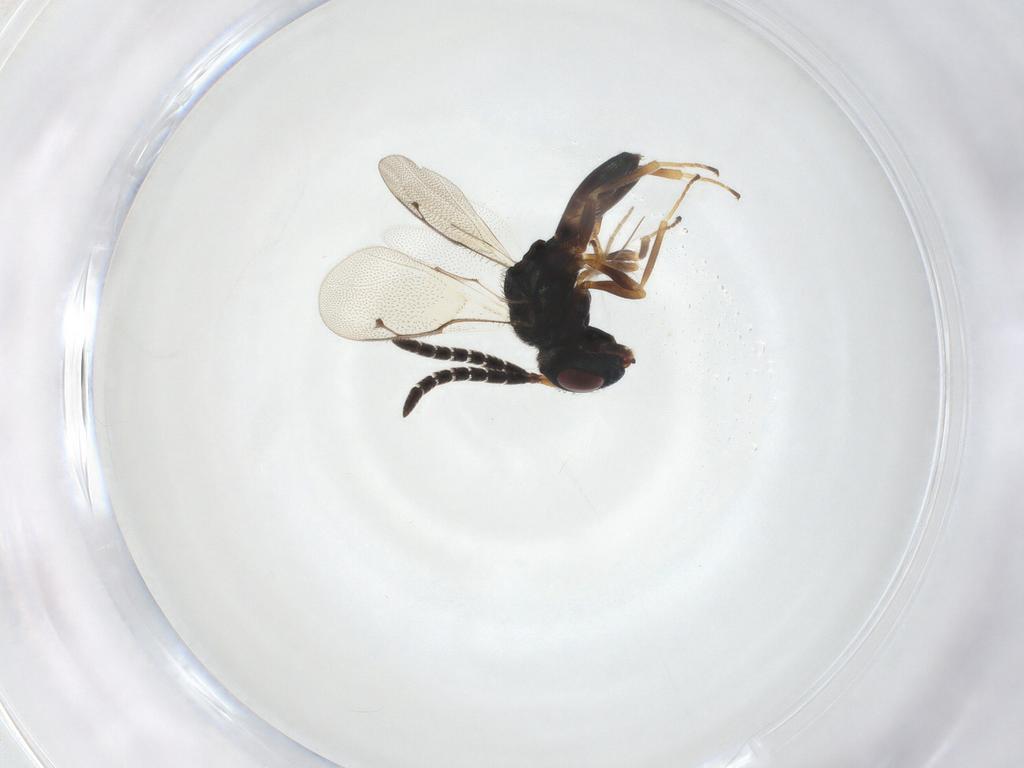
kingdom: Animalia
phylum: Arthropoda
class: Insecta
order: Hymenoptera
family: Agaonidae
